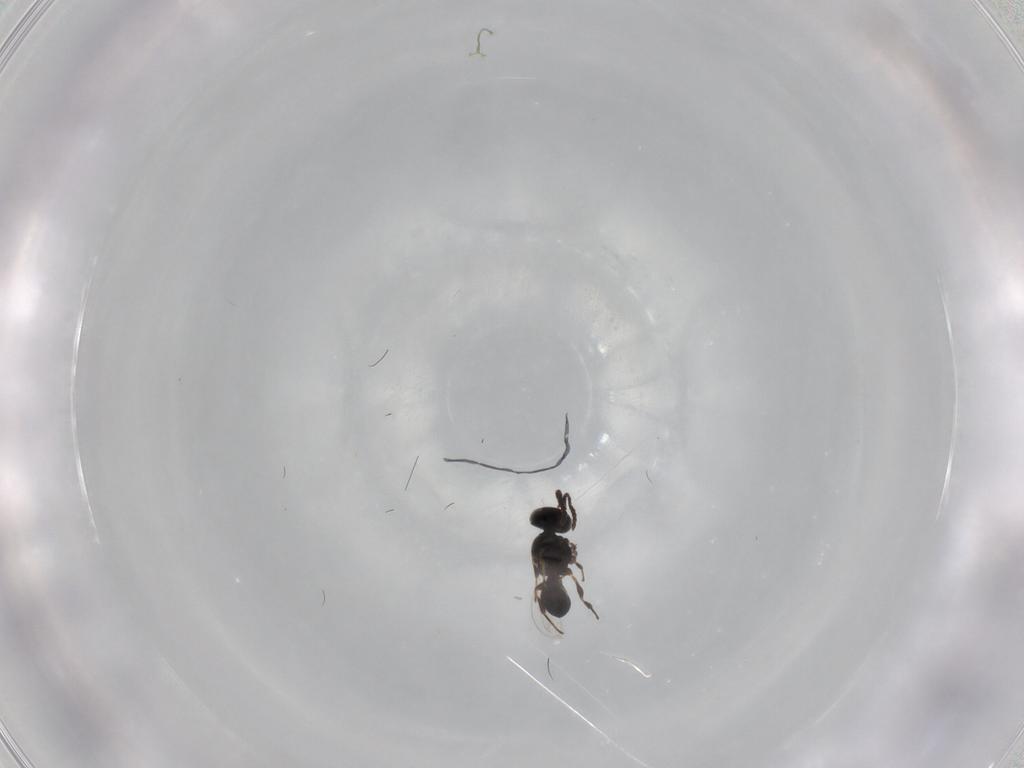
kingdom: Animalia
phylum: Arthropoda
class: Insecta
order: Hymenoptera
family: Platygastridae
